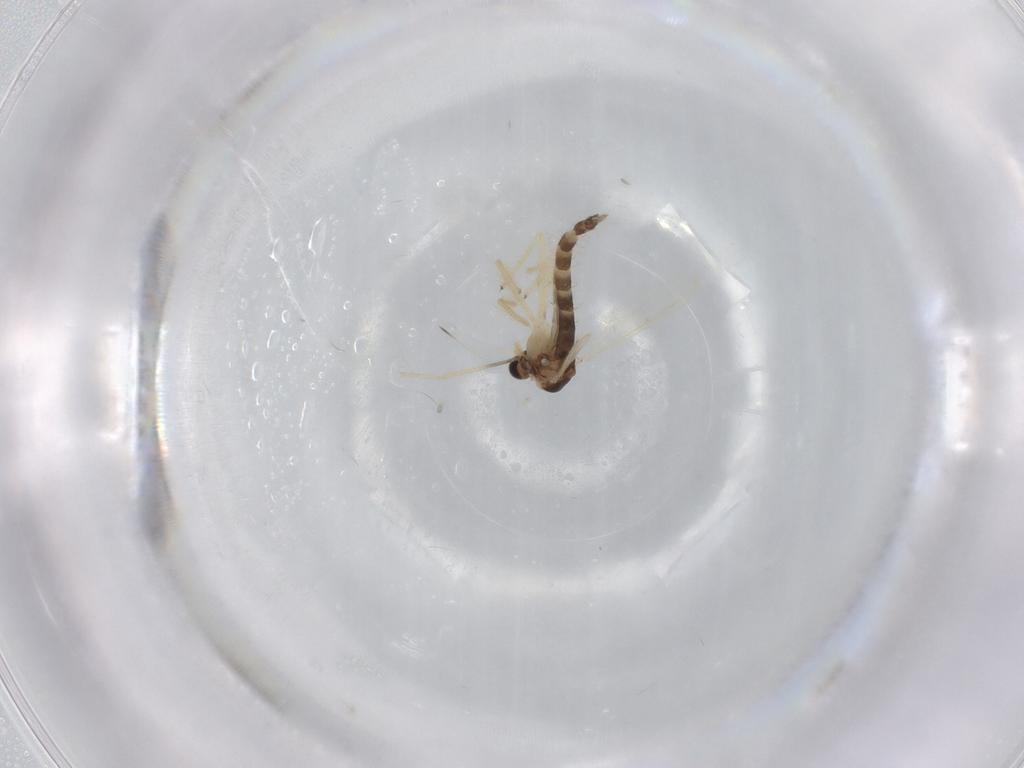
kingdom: Animalia
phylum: Arthropoda
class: Insecta
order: Diptera
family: Chironomidae
